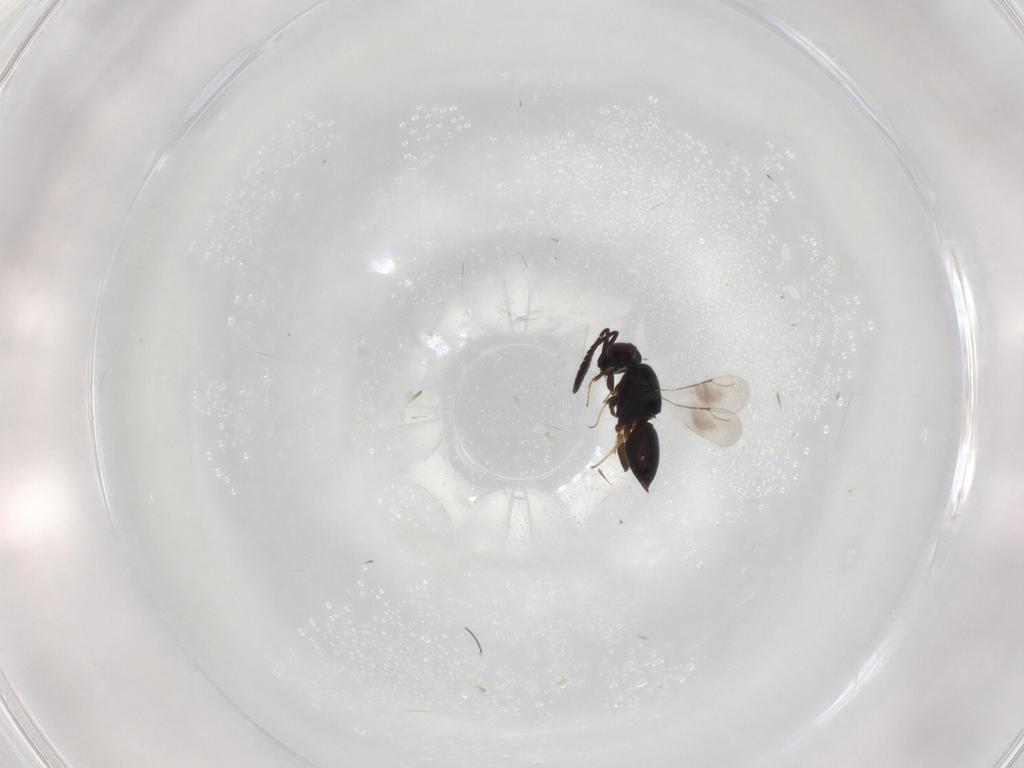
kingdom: Animalia
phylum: Arthropoda
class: Insecta
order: Hymenoptera
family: Ceraphronidae
